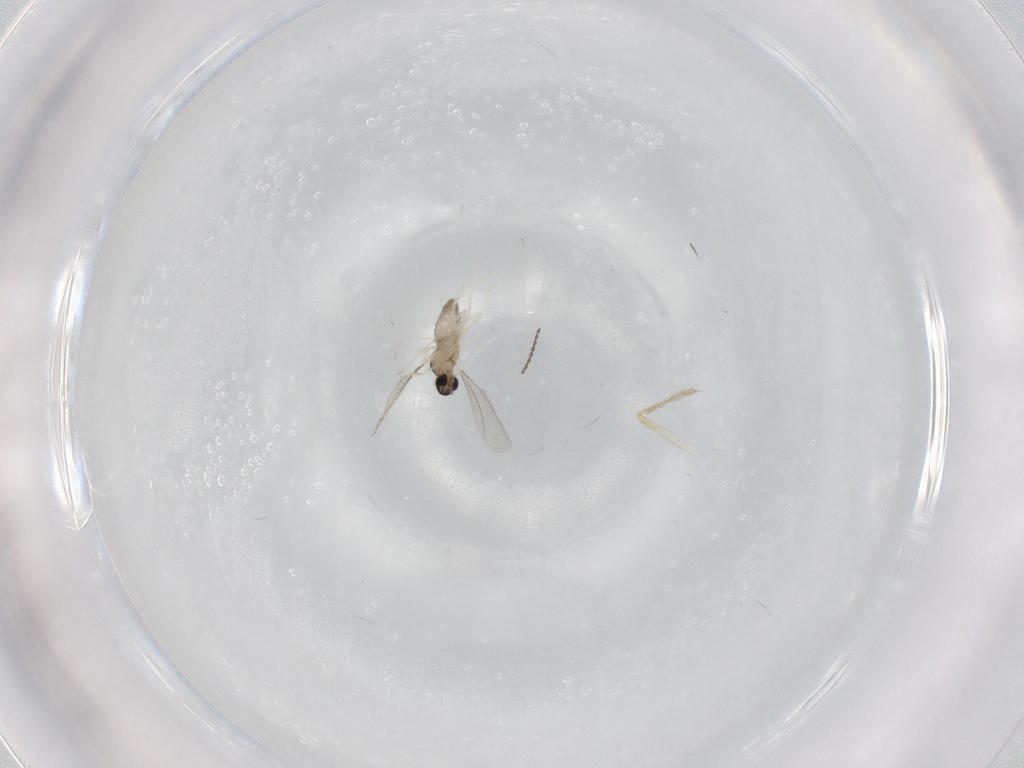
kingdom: Animalia
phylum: Arthropoda
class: Insecta
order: Diptera
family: Cecidomyiidae
